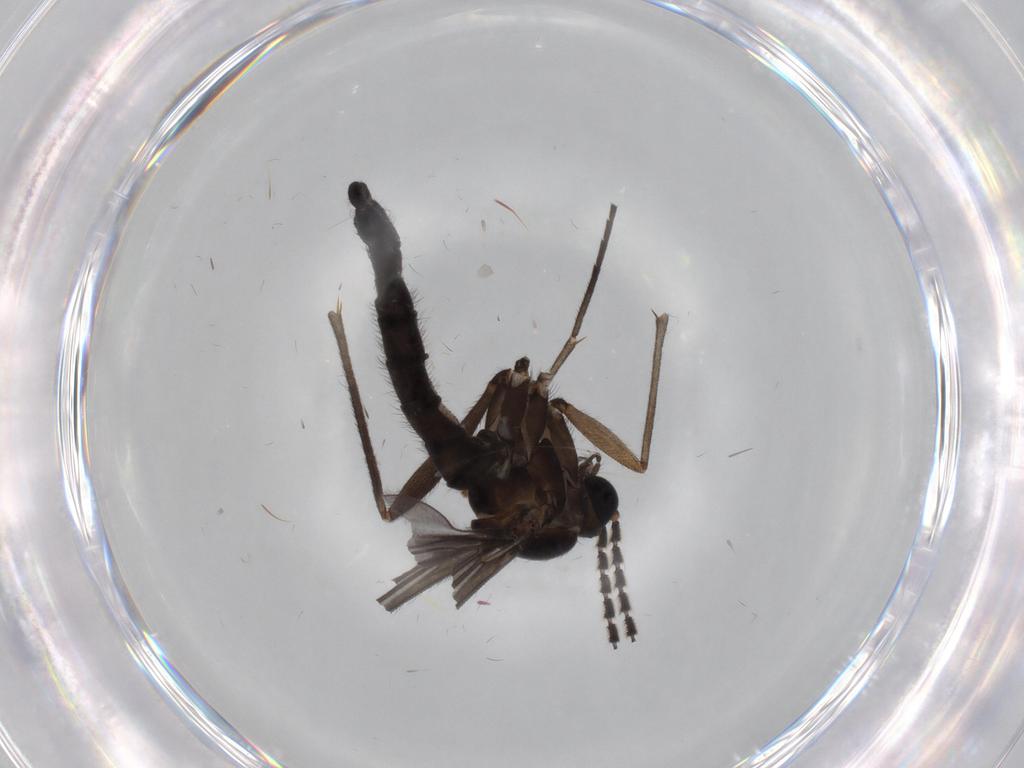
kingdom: Animalia
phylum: Arthropoda
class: Insecta
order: Diptera
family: Sciaridae
